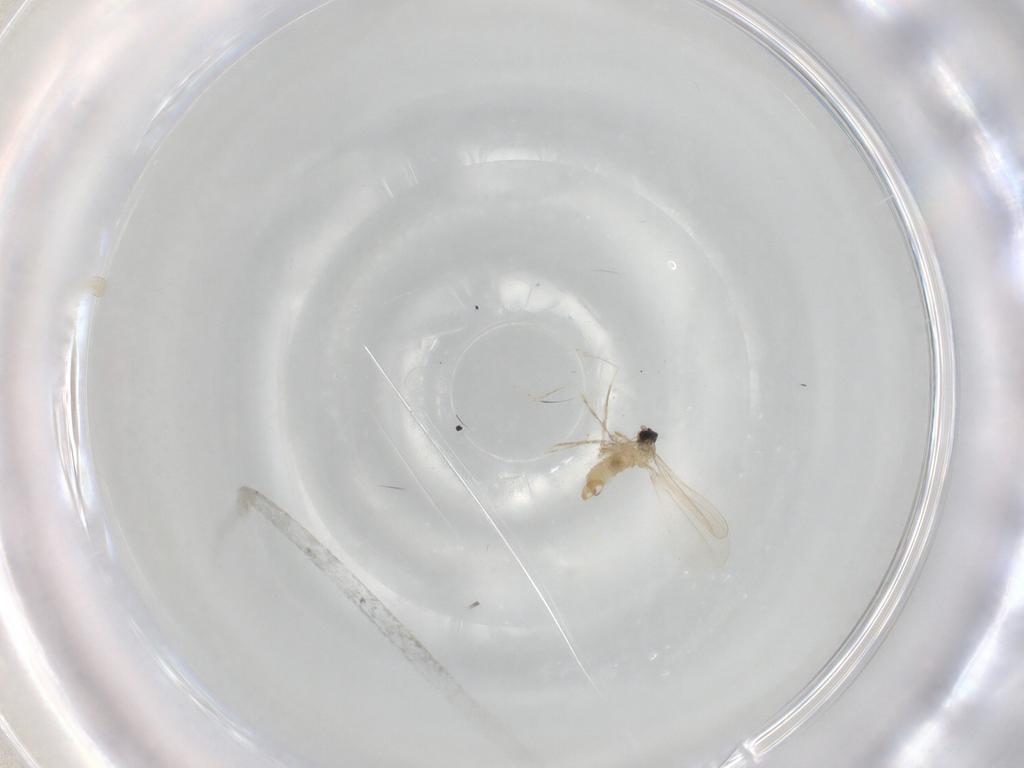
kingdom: Animalia
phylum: Arthropoda
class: Insecta
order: Diptera
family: Cecidomyiidae
